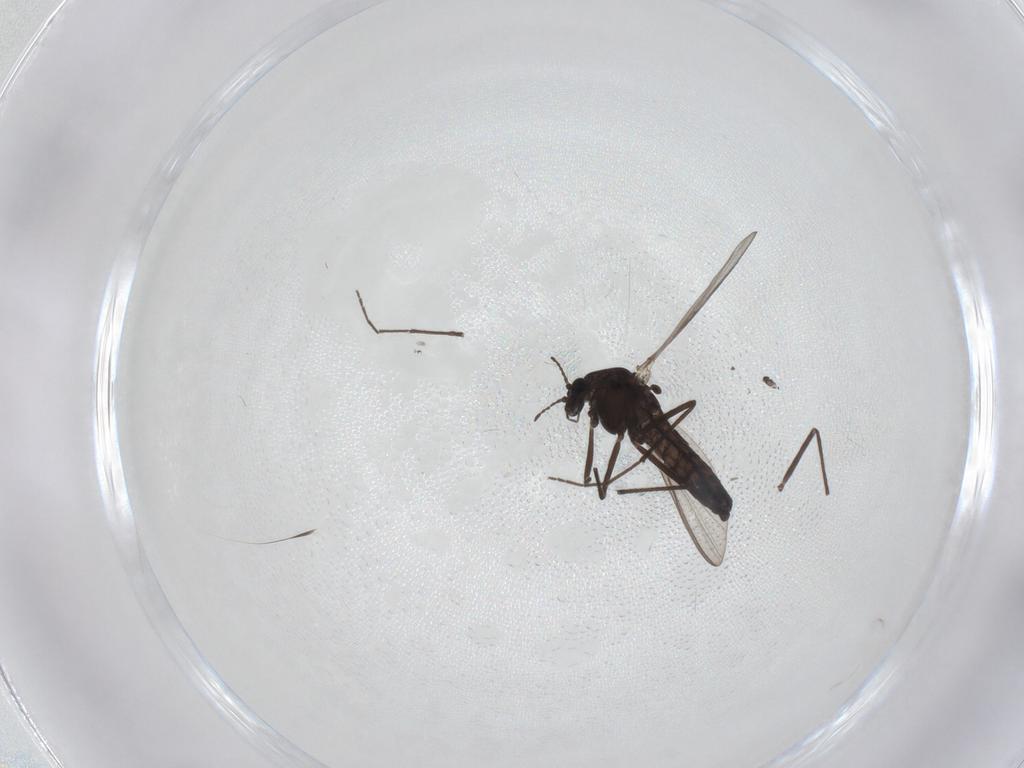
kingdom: Animalia
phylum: Arthropoda
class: Insecta
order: Diptera
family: Chironomidae
